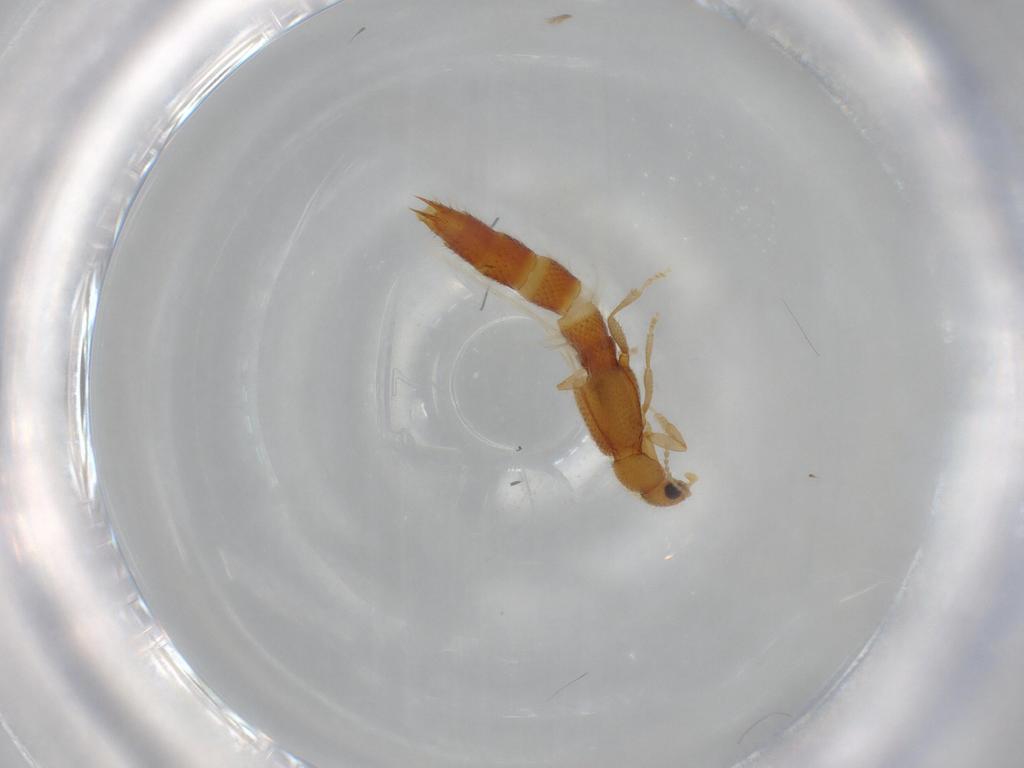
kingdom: Animalia
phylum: Arthropoda
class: Insecta
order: Coleoptera
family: Staphylinidae
